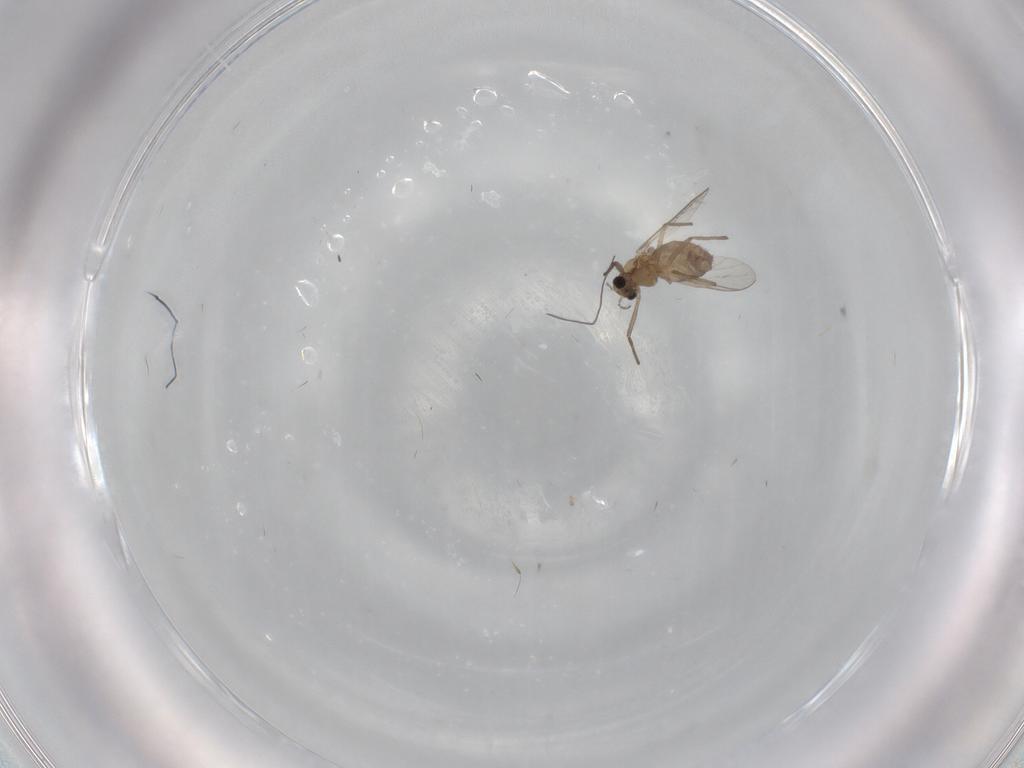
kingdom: Animalia
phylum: Arthropoda
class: Insecta
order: Diptera
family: Chironomidae
